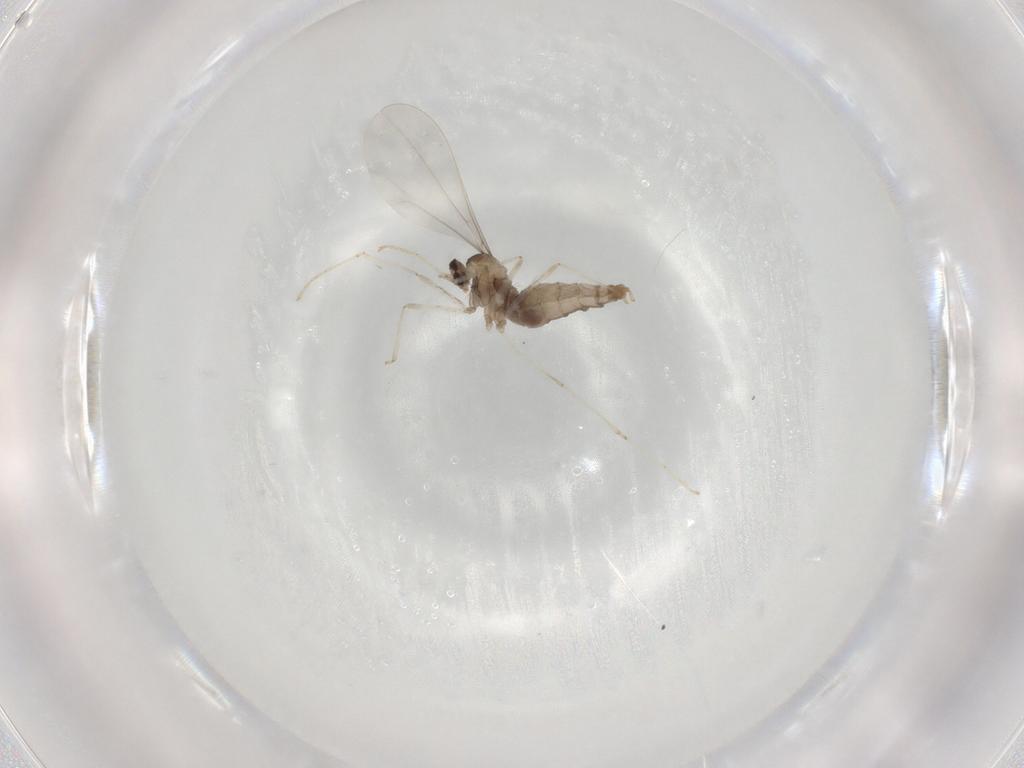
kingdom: Animalia
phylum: Arthropoda
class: Insecta
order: Diptera
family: Cecidomyiidae
